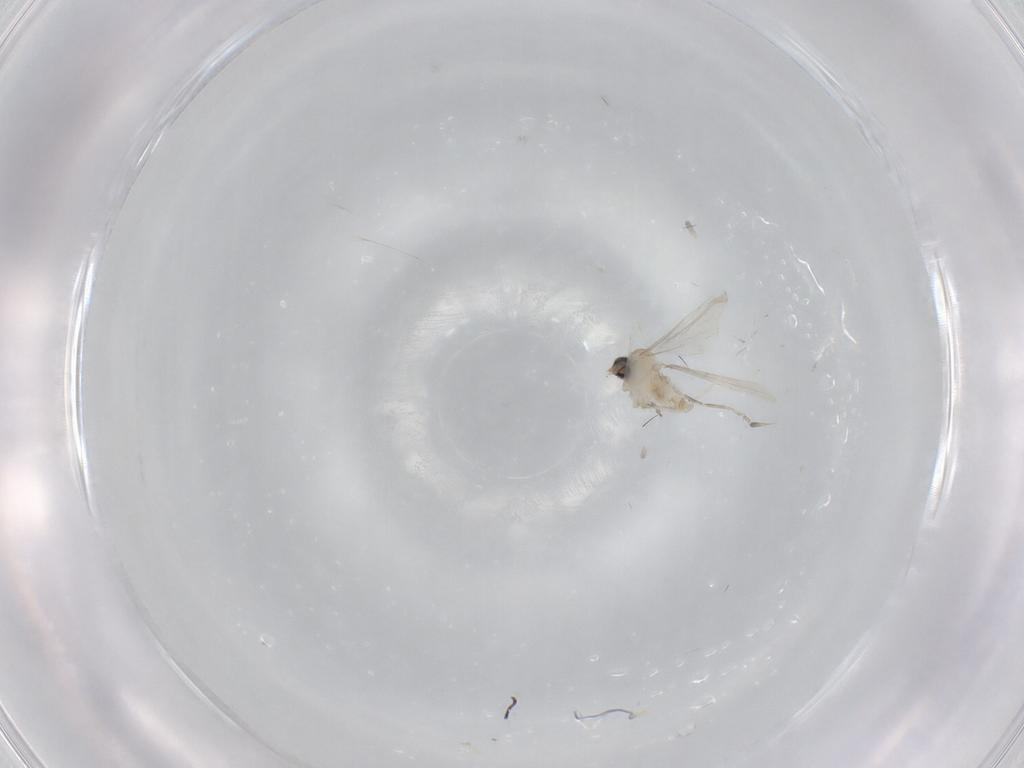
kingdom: Animalia
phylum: Arthropoda
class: Insecta
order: Diptera
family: Cecidomyiidae
